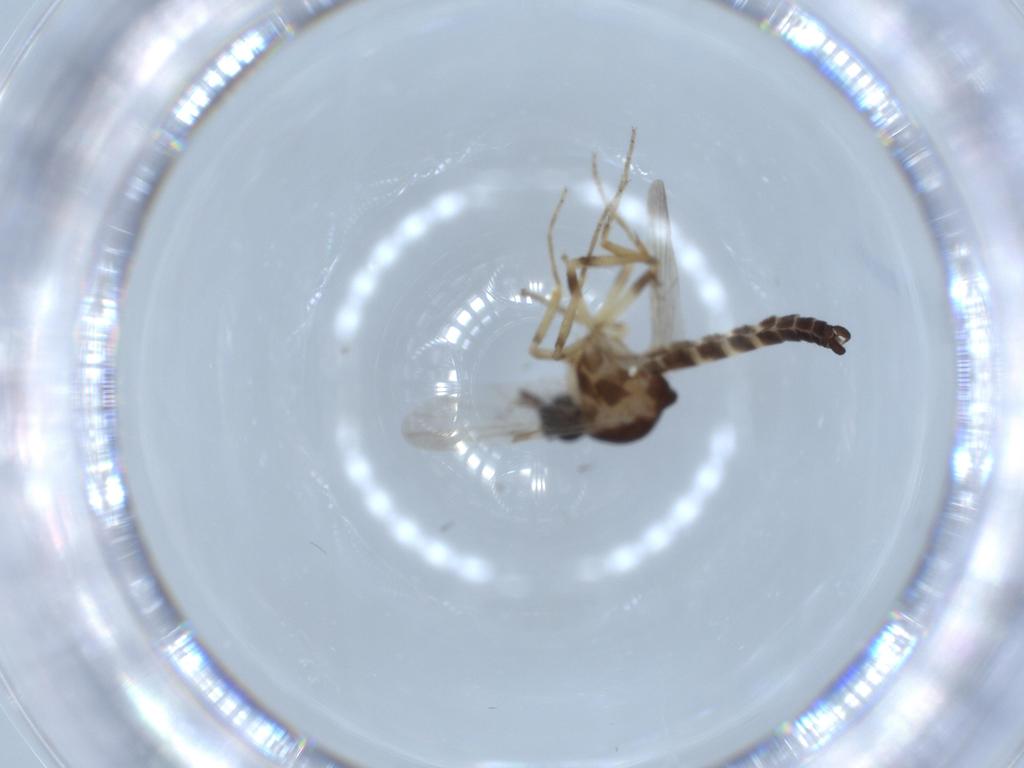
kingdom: Animalia
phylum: Arthropoda
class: Insecta
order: Diptera
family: Ceratopogonidae
